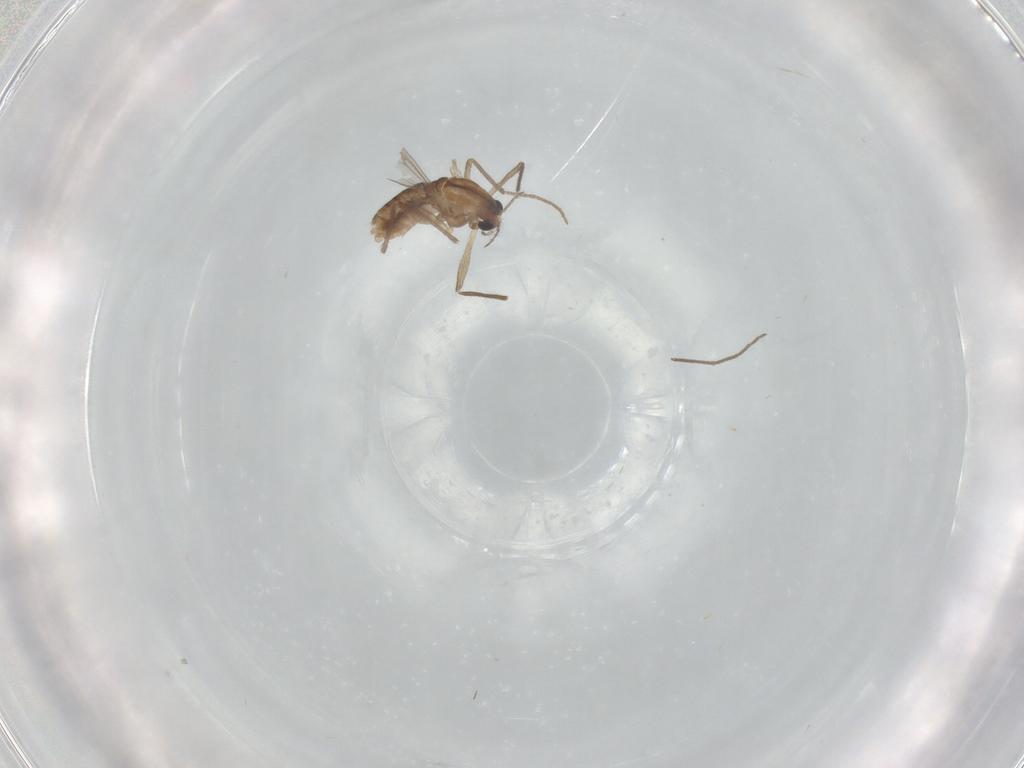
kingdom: Animalia
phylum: Arthropoda
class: Insecta
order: Diptera
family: Chironomidae
